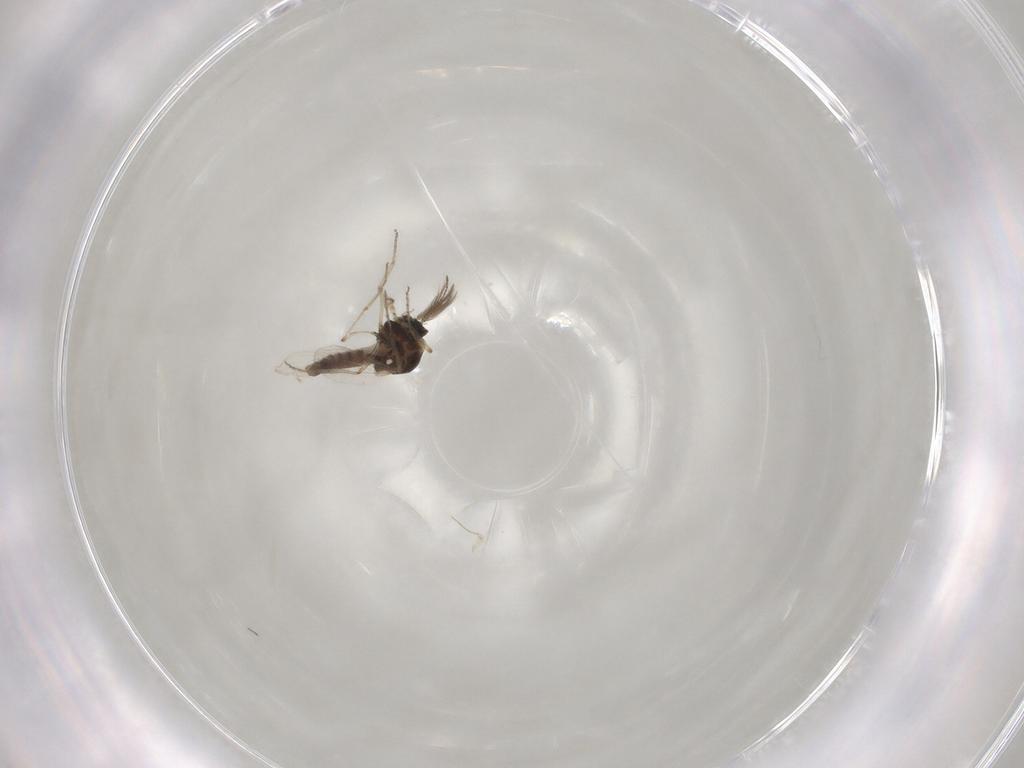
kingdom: Animalia
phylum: Arthropoda
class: Insecta
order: Diptera
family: Ceratopogonidae
